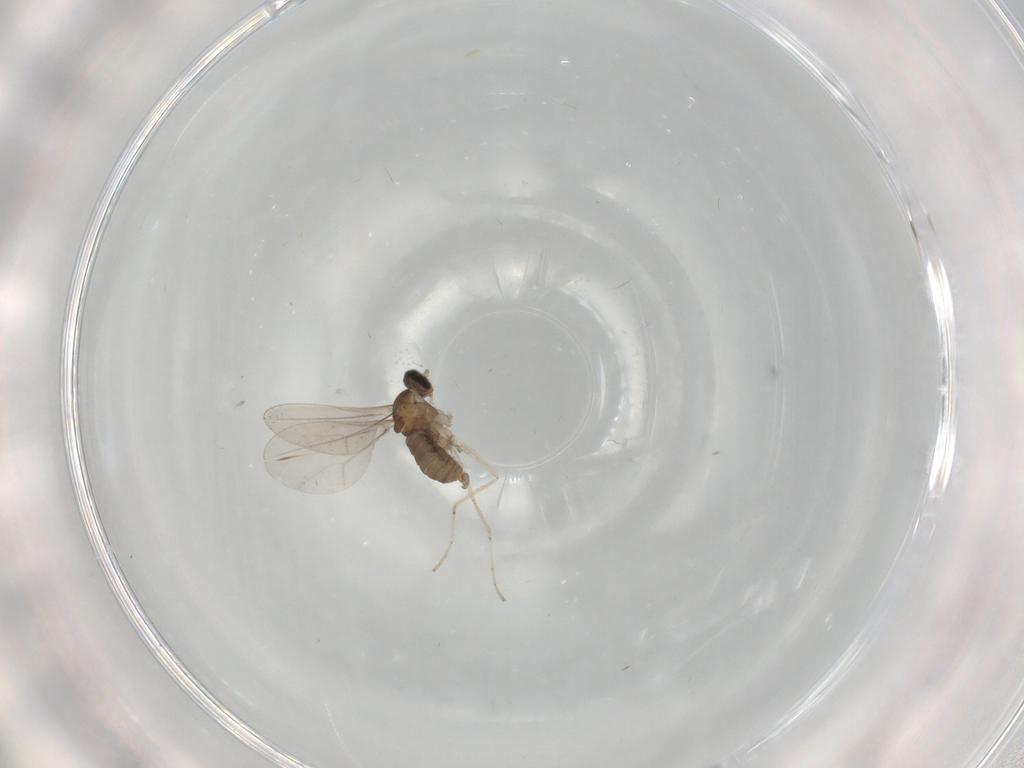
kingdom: Animalia
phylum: Arthropoda
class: Insecta
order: Diptera
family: Cecidomyiidae
